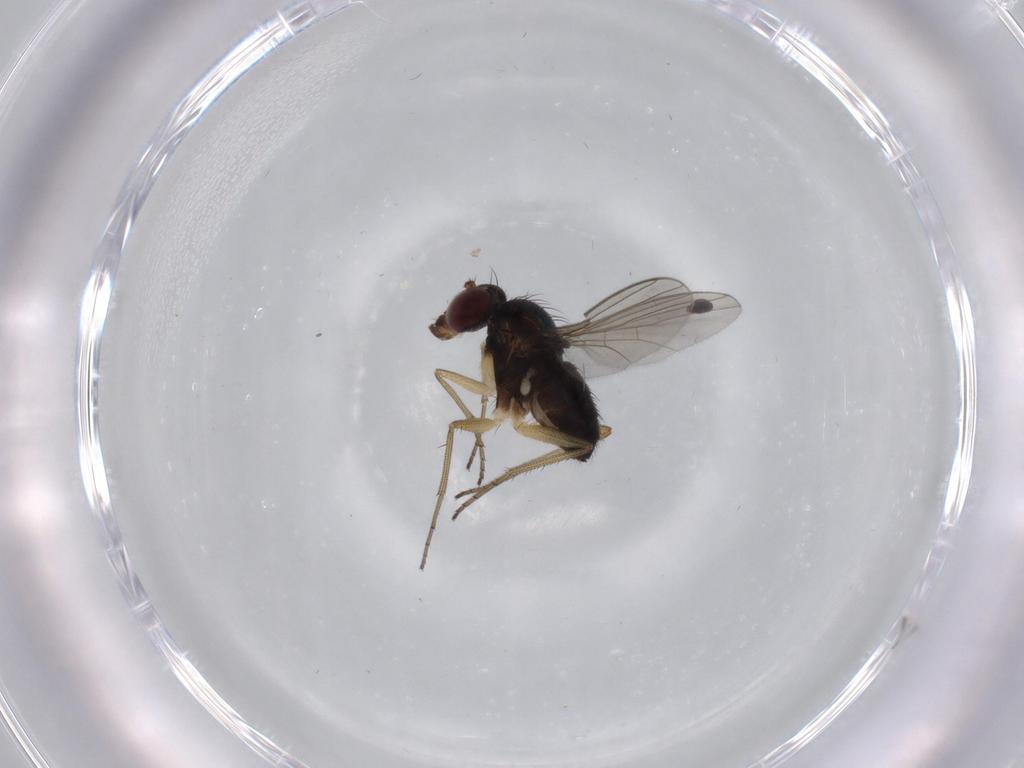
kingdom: Animalia
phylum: Arthropoda
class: Insecta
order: Diptera
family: Dolichopodidae
